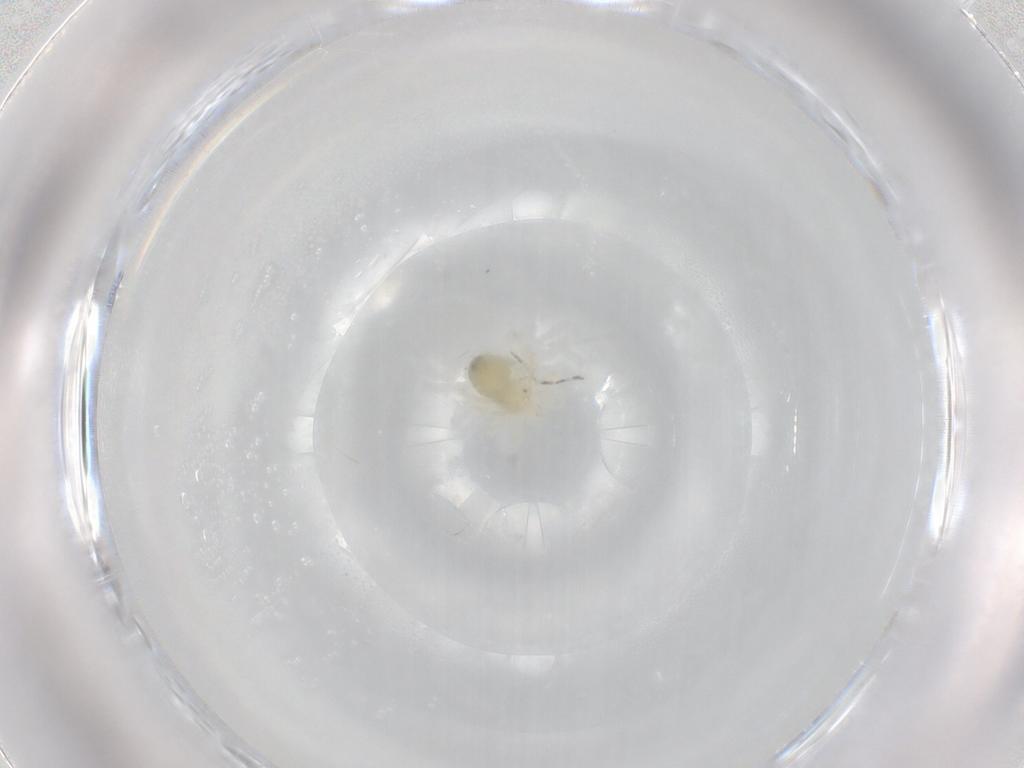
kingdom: Animalia
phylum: Arthropoda
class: Arachnida
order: Trombidiformes
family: Anystidae
